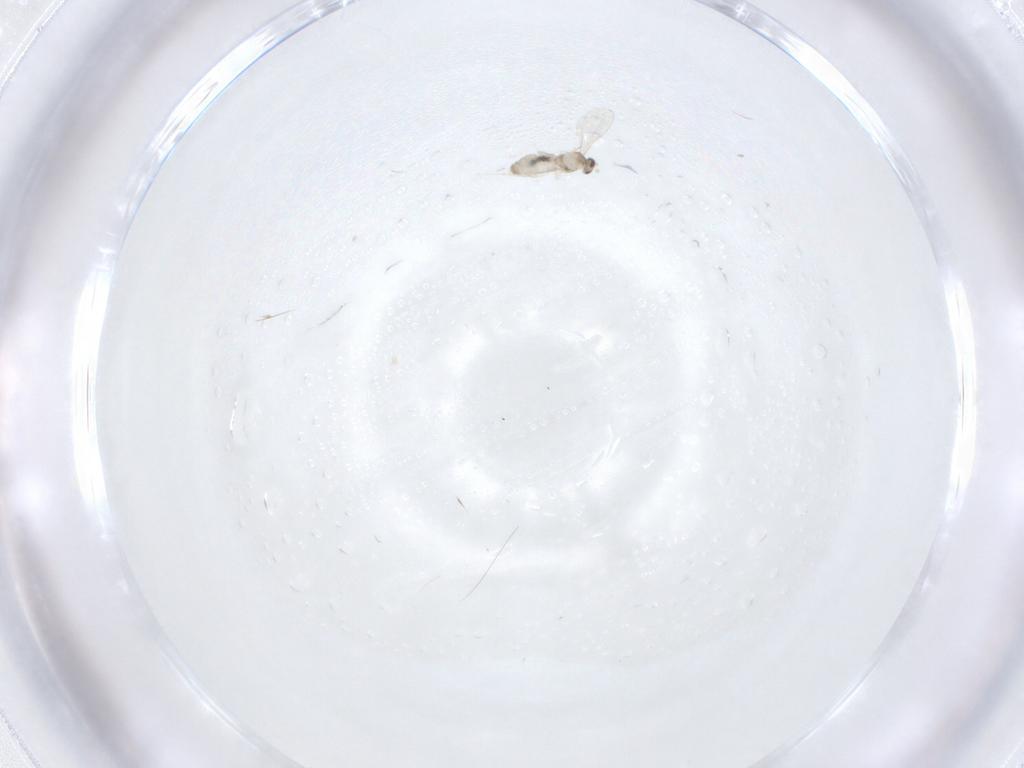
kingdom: Animalia
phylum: Arthropoda
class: Insecta
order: Diptera
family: Cecidomyiidae
